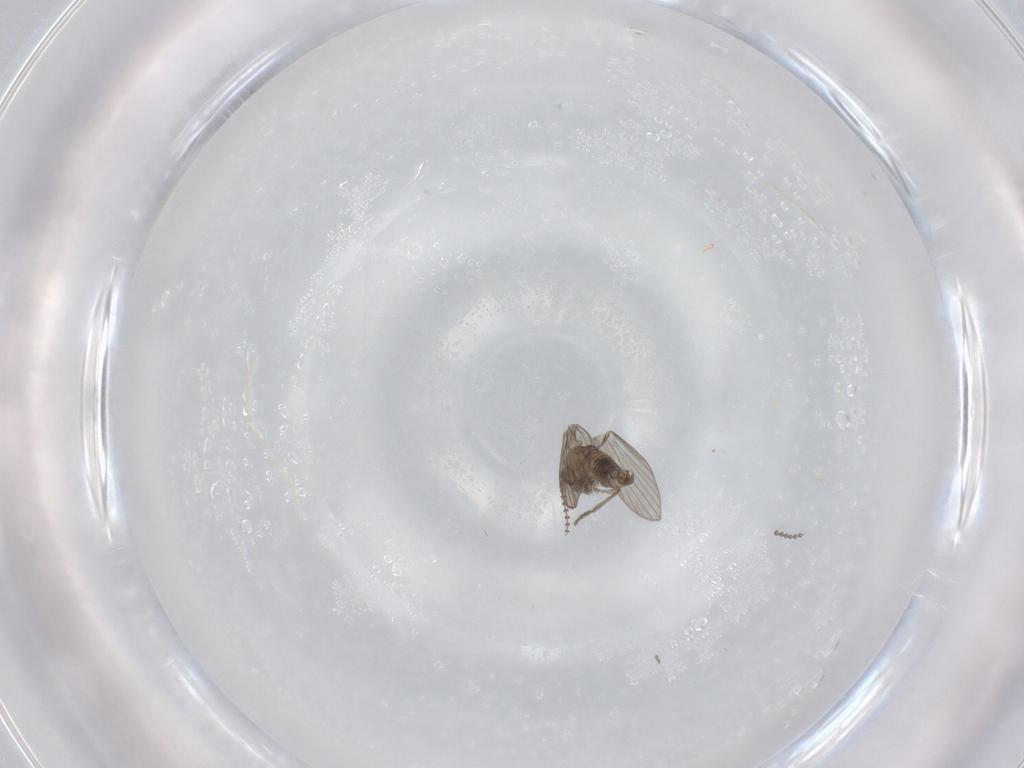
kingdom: Animalia
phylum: Arthropoda
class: Insecta
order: Diptera
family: Psychodidae
